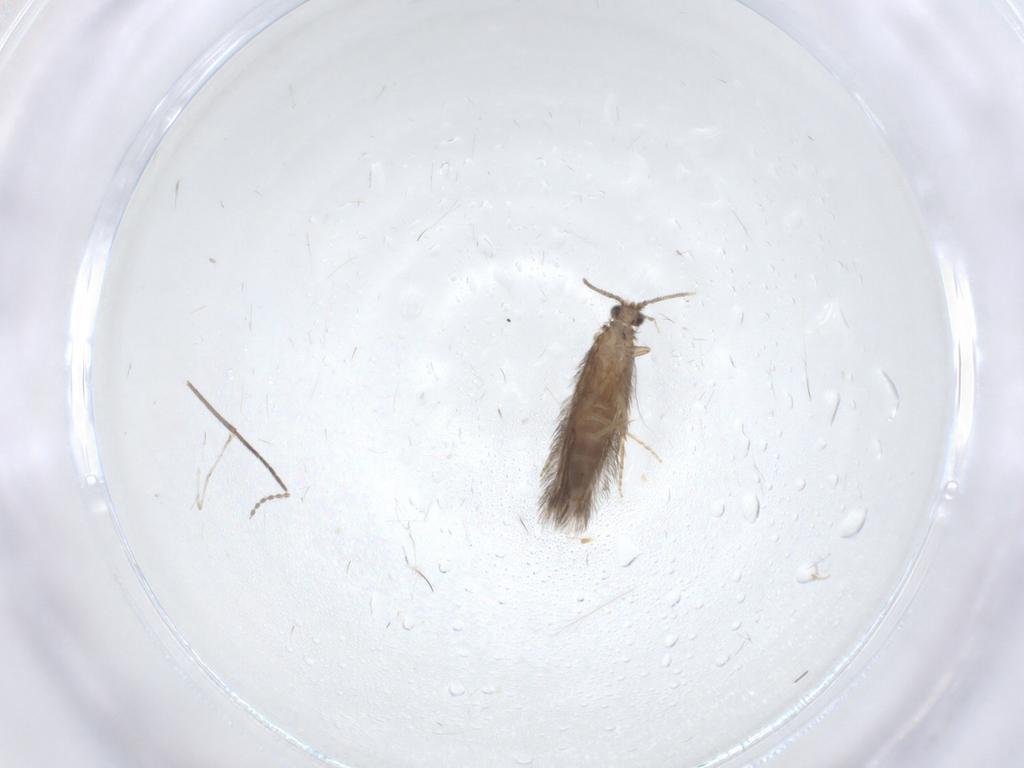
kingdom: Animalia
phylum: Arthropoda
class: Insecta
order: Trichoptera
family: Hydroptilidae
